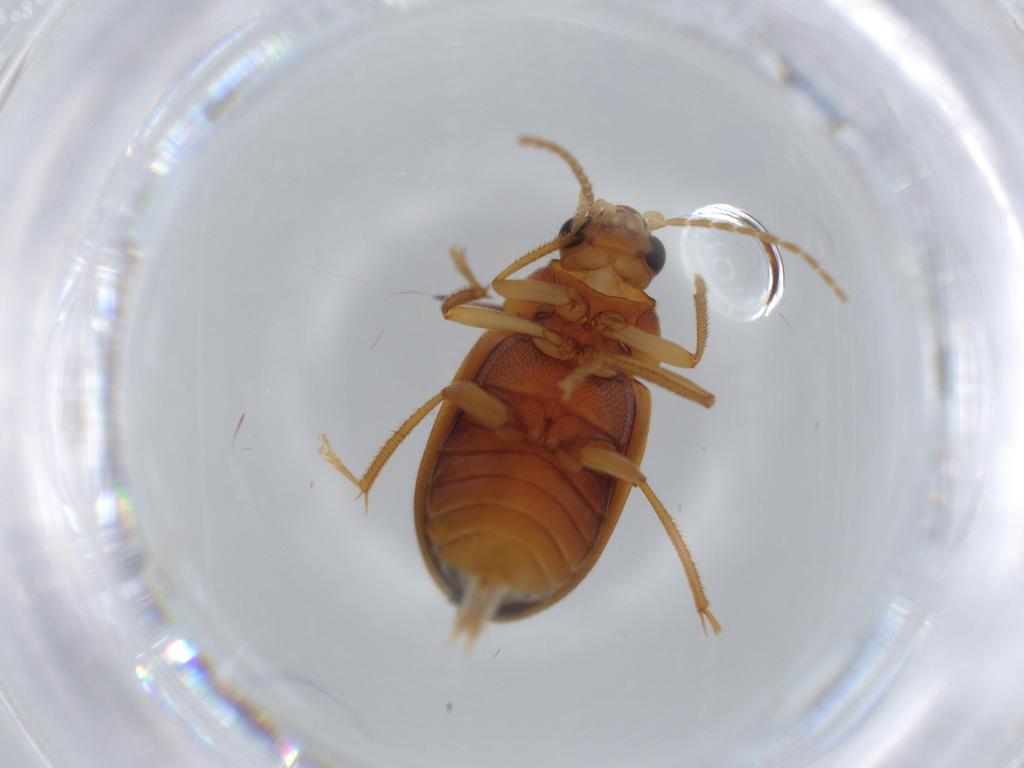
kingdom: Animalia
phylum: Arthropoda
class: Insecta
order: Coleoptera
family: Ptilodactylidae
